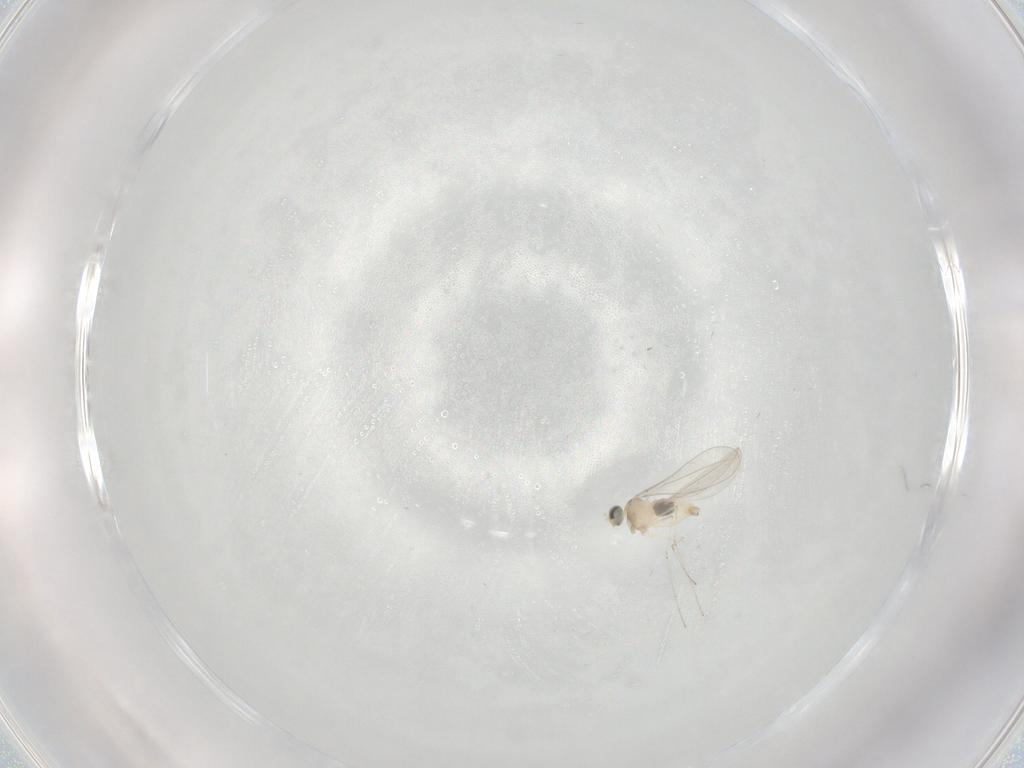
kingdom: Animalia
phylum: Arthropoda
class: Insecta
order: Diptera
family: Cecidomyiidae
